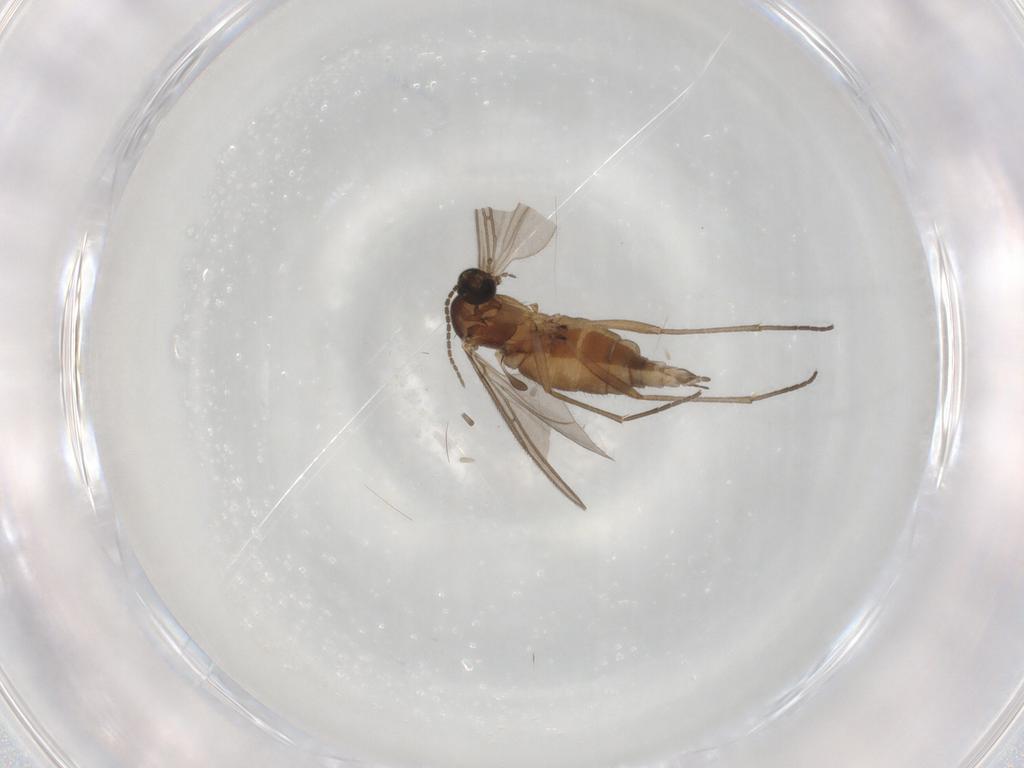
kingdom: Animalia
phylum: Arthropoda
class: Insecta
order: Diptera
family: Sciaridae
